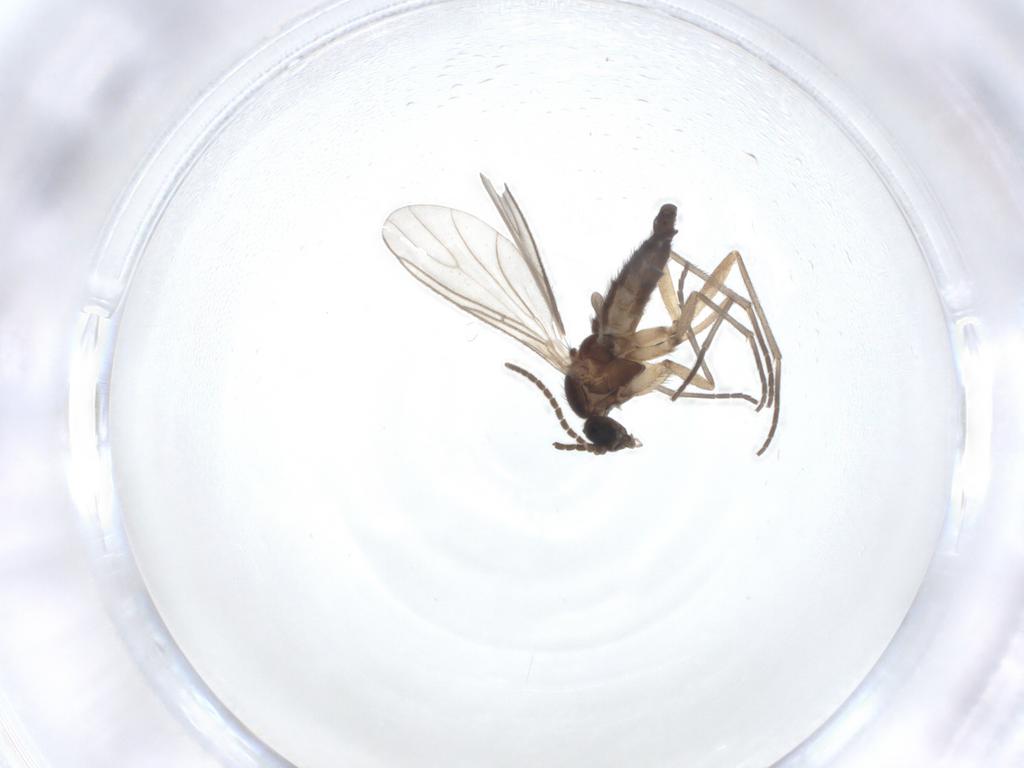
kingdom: Animalia
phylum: Arthropoda
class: Insecta
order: Diptera
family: Sciaridae
